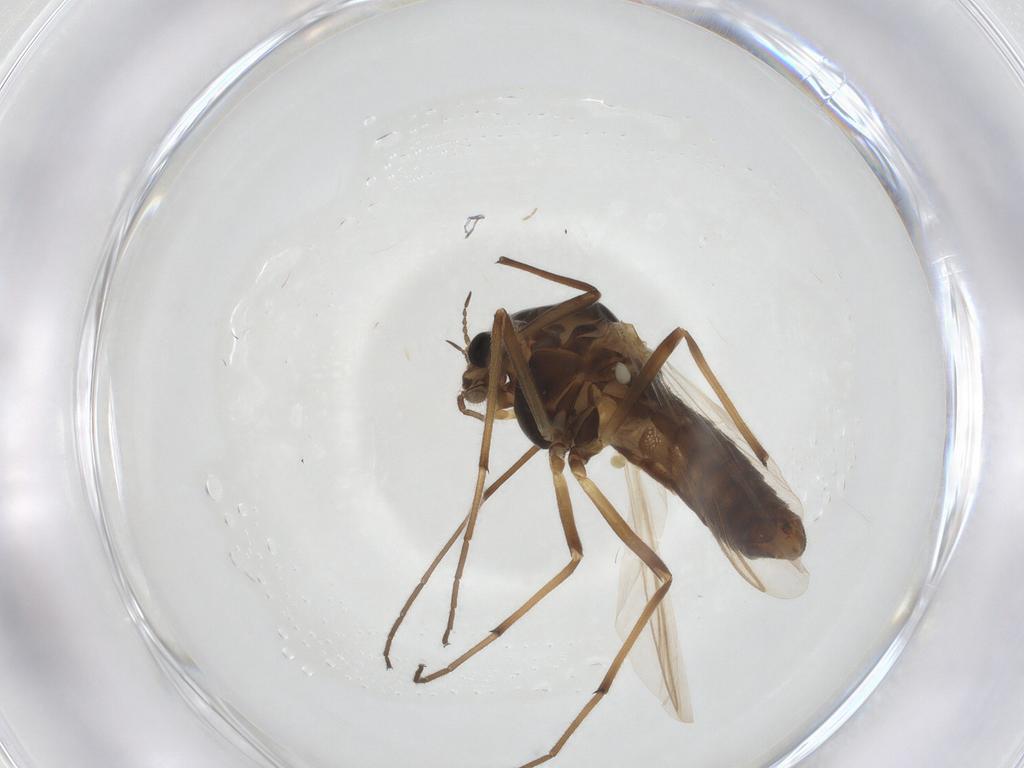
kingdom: Animalia
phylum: Arthropoda
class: Insecta
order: Diptera
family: Chironomidae
